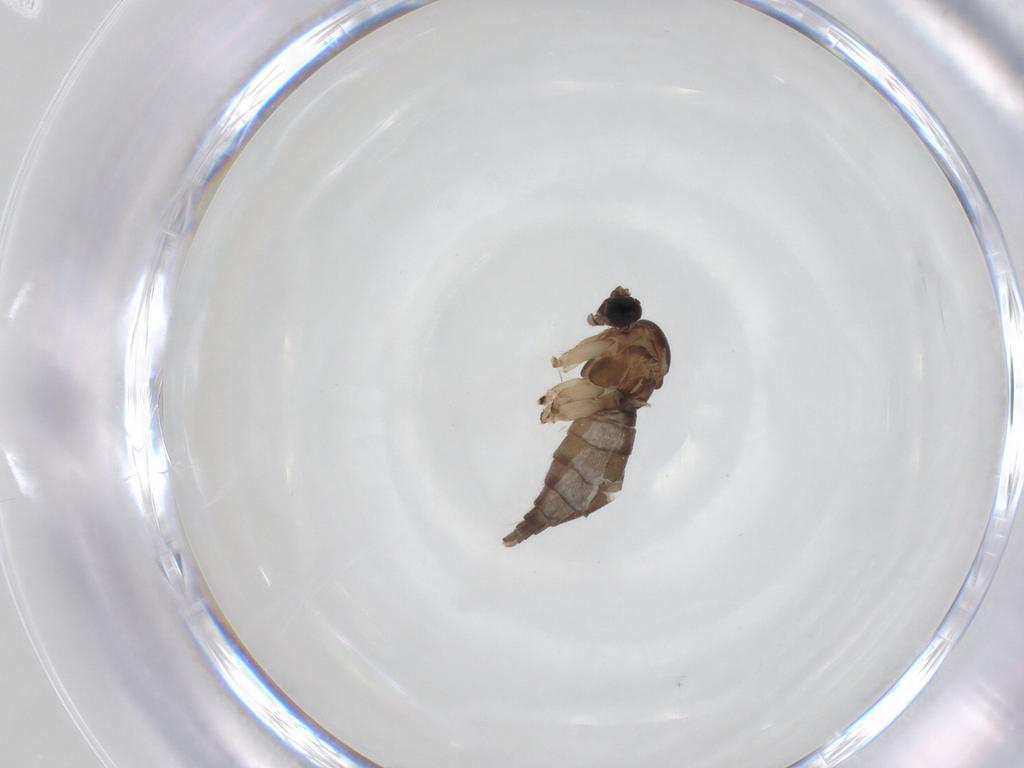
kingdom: Animalia
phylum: Arthropoda
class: Insecta
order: Diptera
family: Sciaridae
